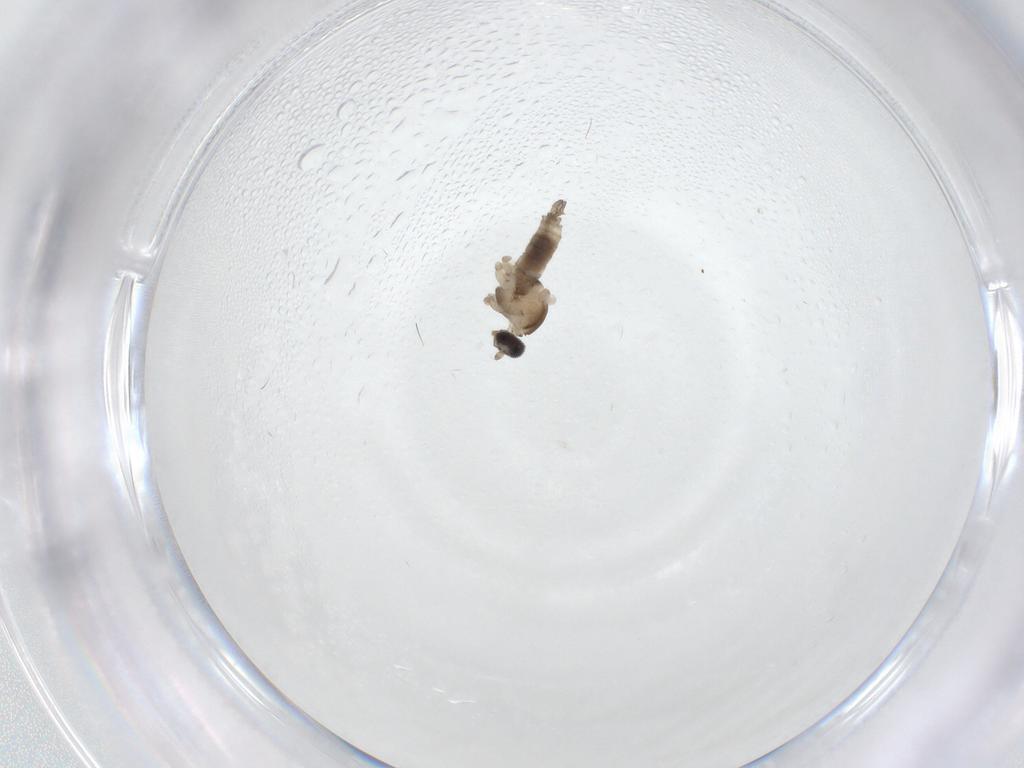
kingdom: Animalia
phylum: Arthropoda
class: Insecta
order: Diptera
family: Cecidomyiidae
